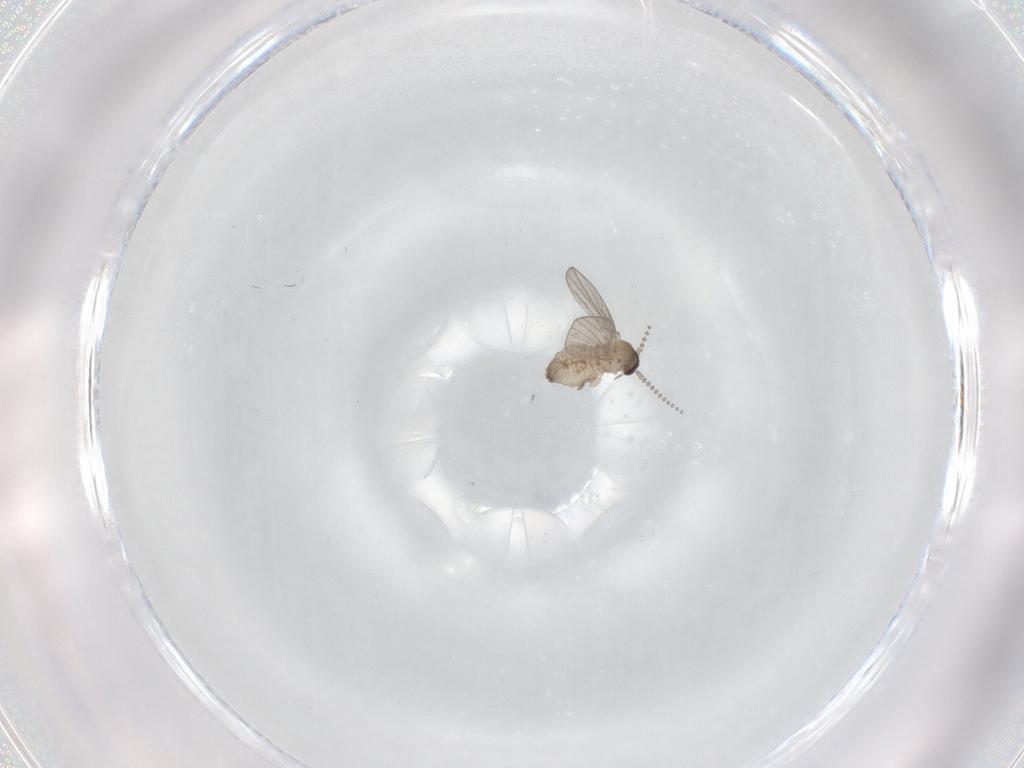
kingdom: Animalia
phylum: Arthropoda
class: Insecta
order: Diptera
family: Psychodidae
